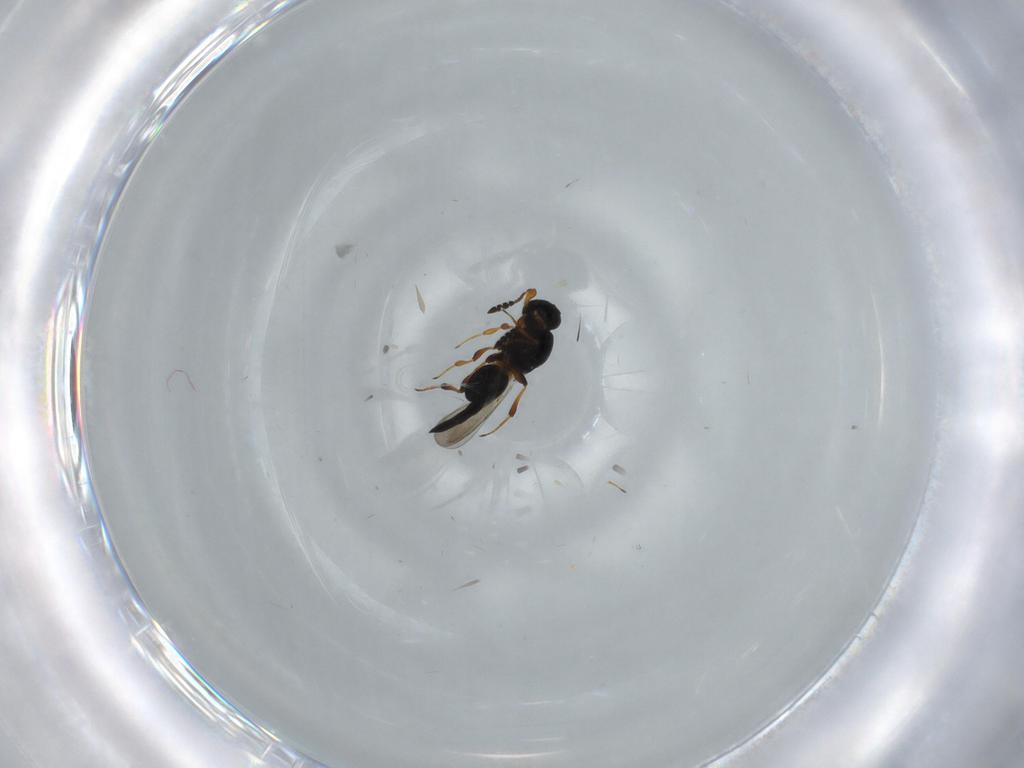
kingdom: Animalia
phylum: Arthropoda
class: Insecta
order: Hymenoptera
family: Platygastridae
